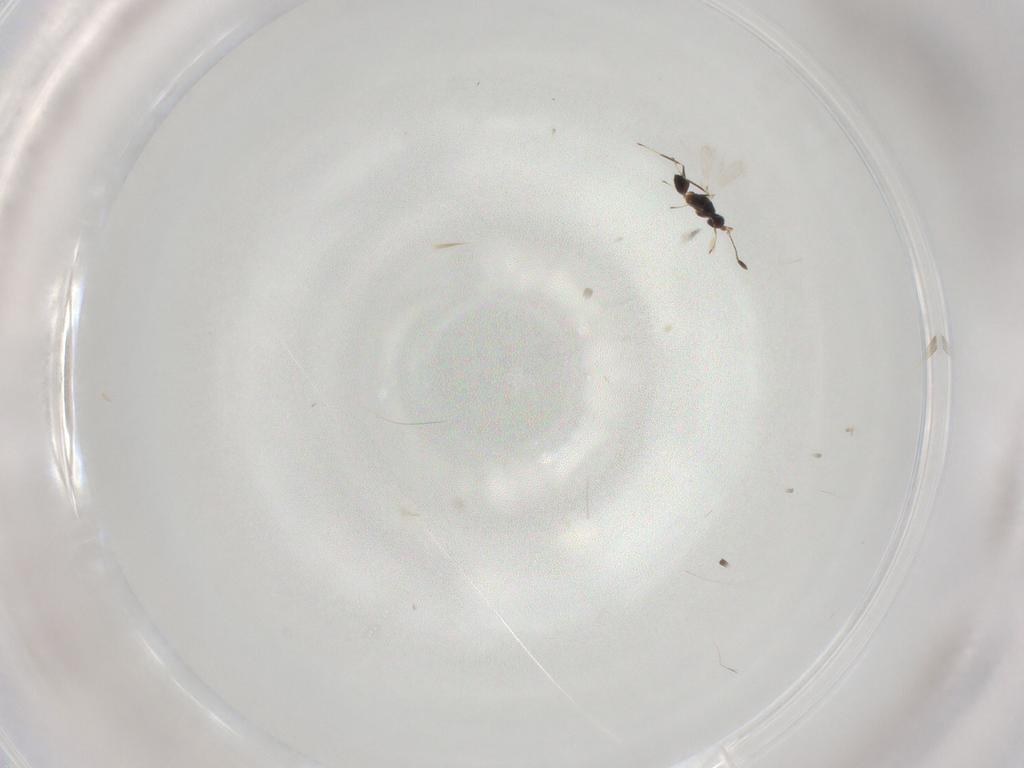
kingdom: Animalia
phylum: Arthropoda
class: Insecta
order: Hymenoptera
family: Mymaridae
